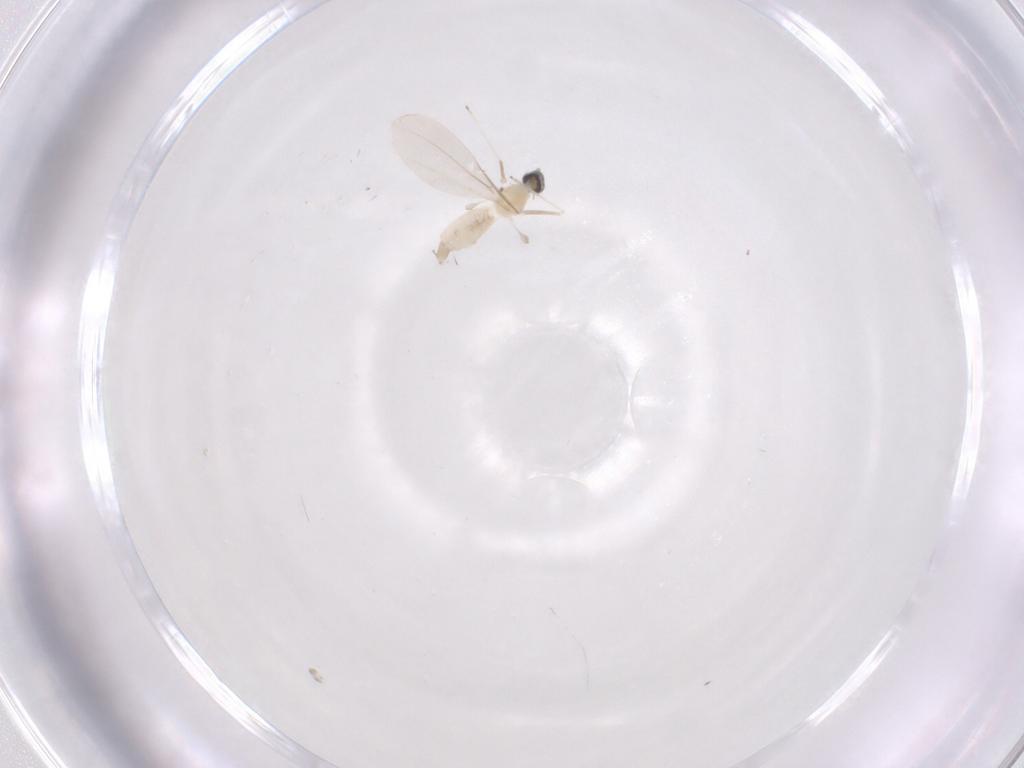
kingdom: Animalia
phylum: Arthropoda
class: Insecta
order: Diptera
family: Cecidomyiidae
